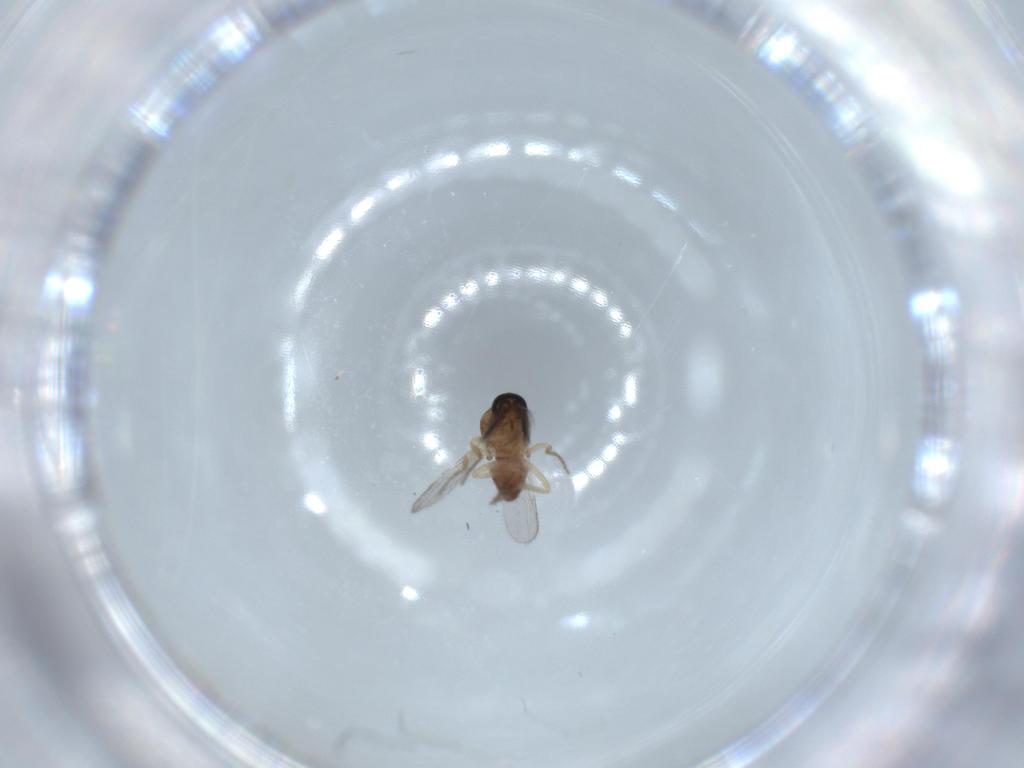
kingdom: Animalia
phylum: Arthropoda
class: Insecta
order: Diptera
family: Ceratopogonidae
